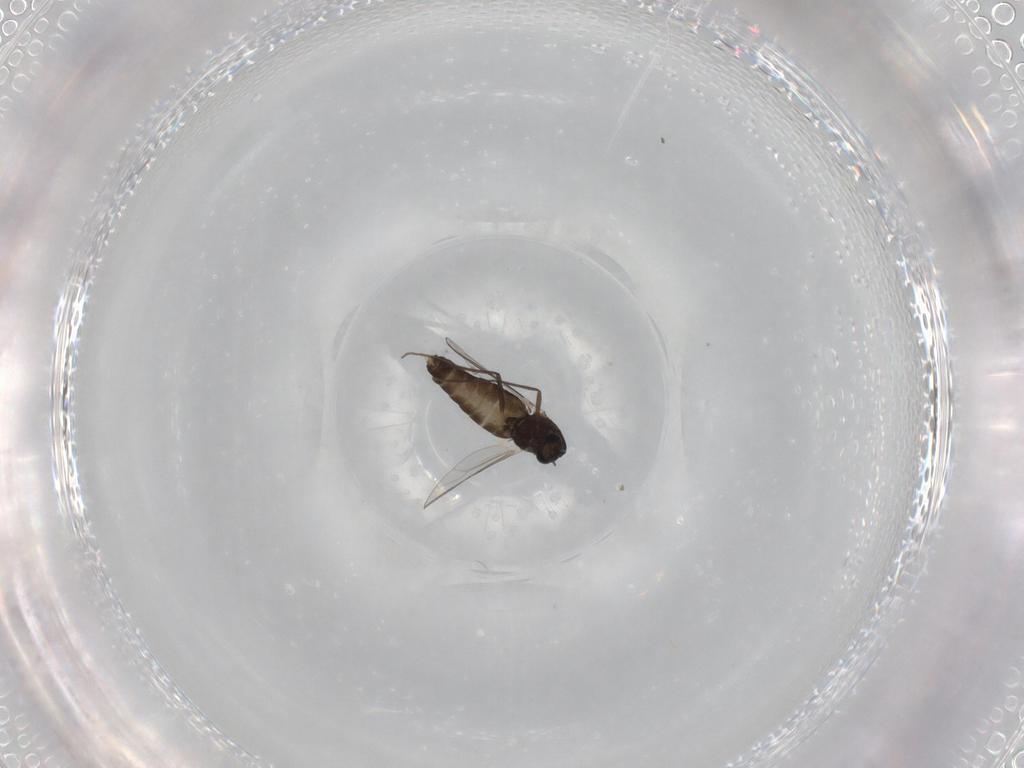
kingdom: Animalia
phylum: Arthropoda
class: Insecta
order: Diptera
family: Chironomidae
